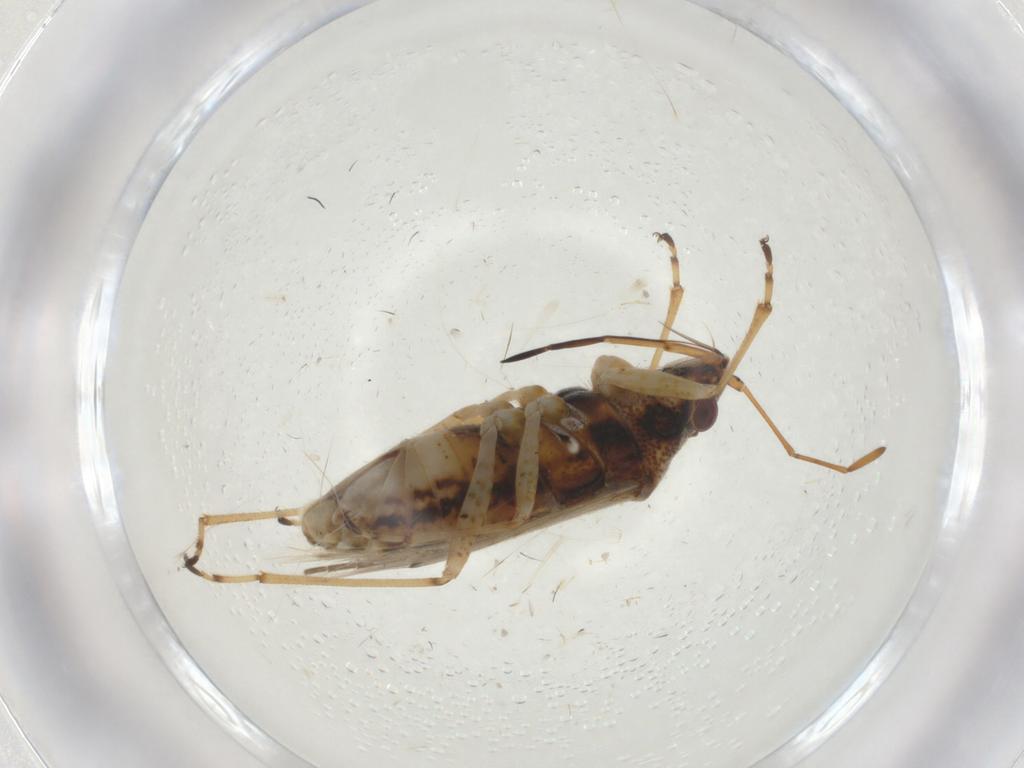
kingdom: Animalia
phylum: Arthropoda
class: Insecta
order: Hemiptera
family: Lygaeidae
